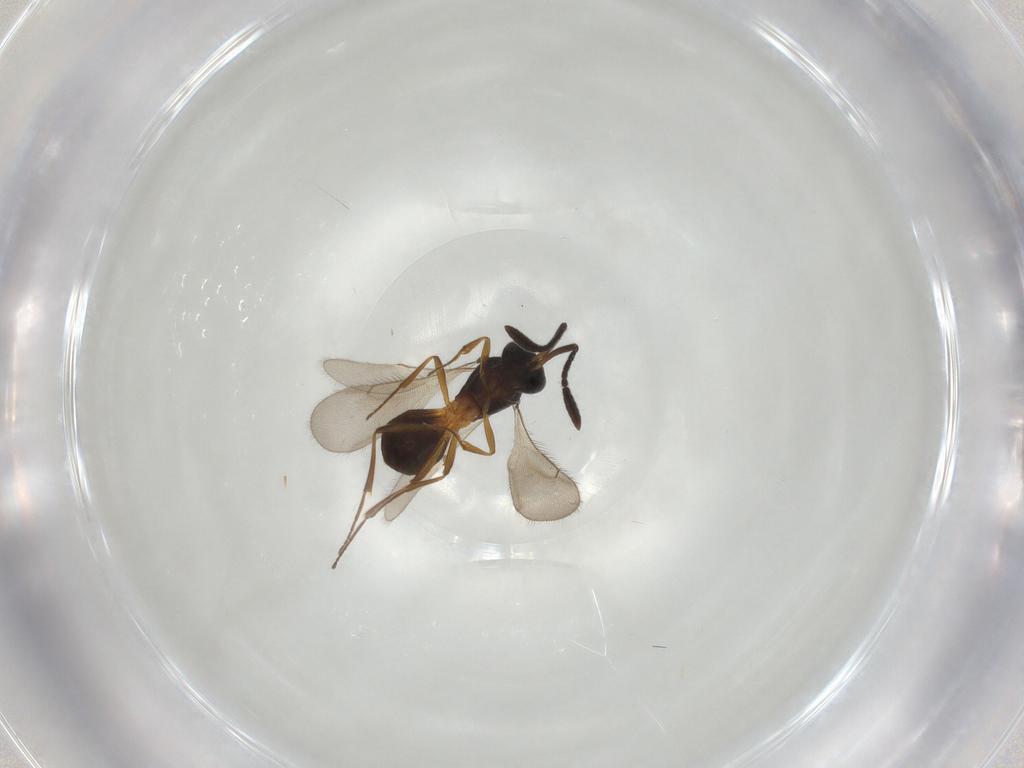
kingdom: Animalia
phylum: Arthropoda
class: Insecta
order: Hymenoptera
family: Scelionidae
